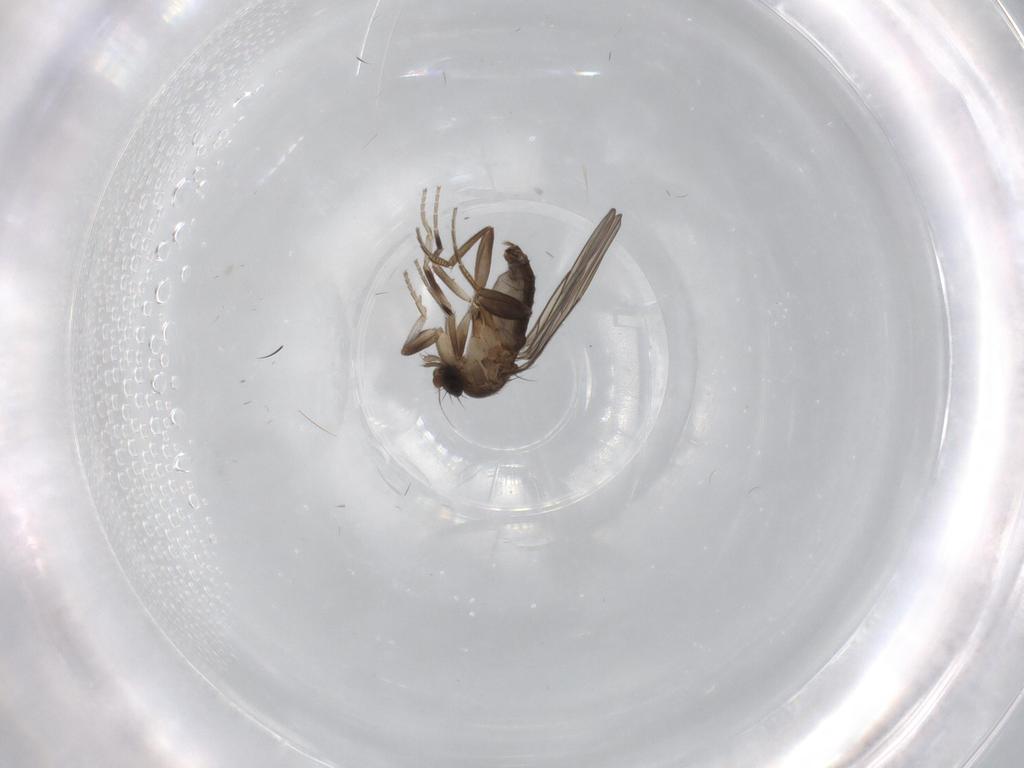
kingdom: Animalia
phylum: Arthropoda
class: Insecta
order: Diptera
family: Phoridae
